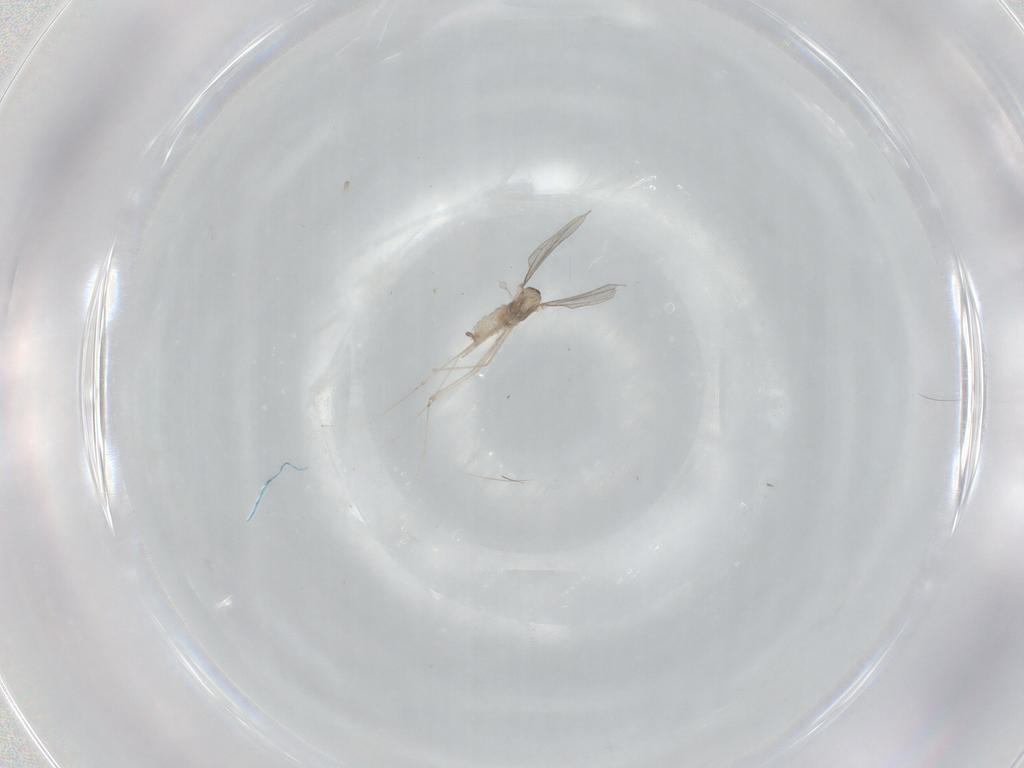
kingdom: Animalia
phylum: Arthropoda
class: Insecta
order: Diptera
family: Cecidomyiidae
